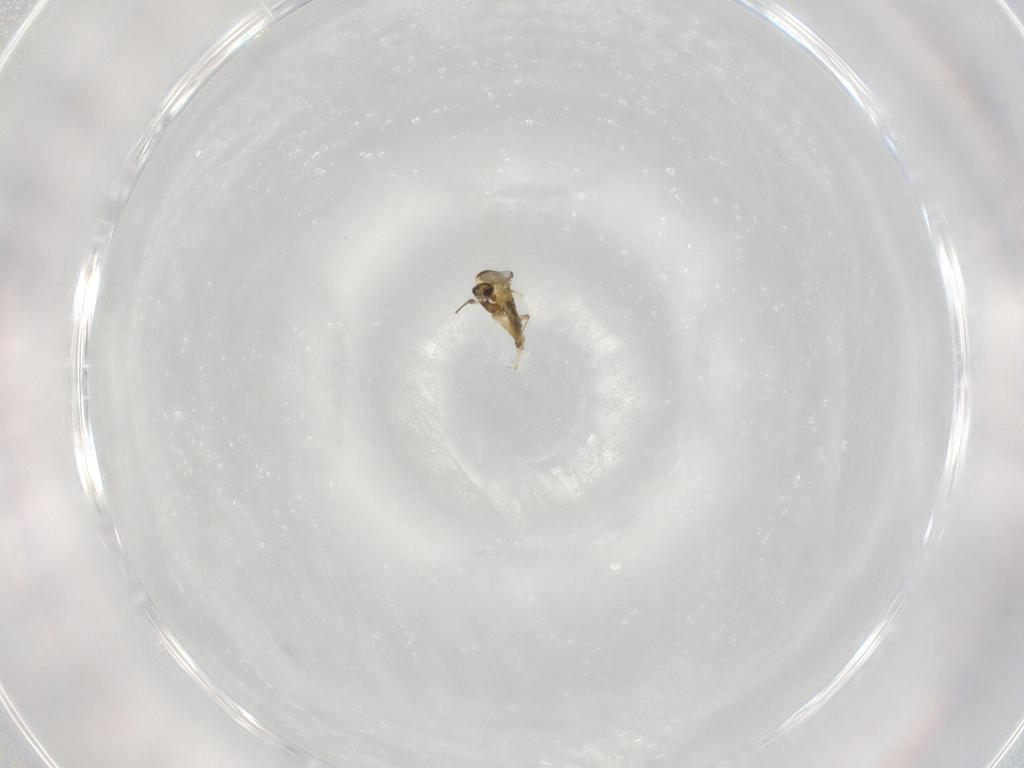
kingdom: Animalia
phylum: Arthropoda
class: Insecta
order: Diptera
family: Chironomidae
